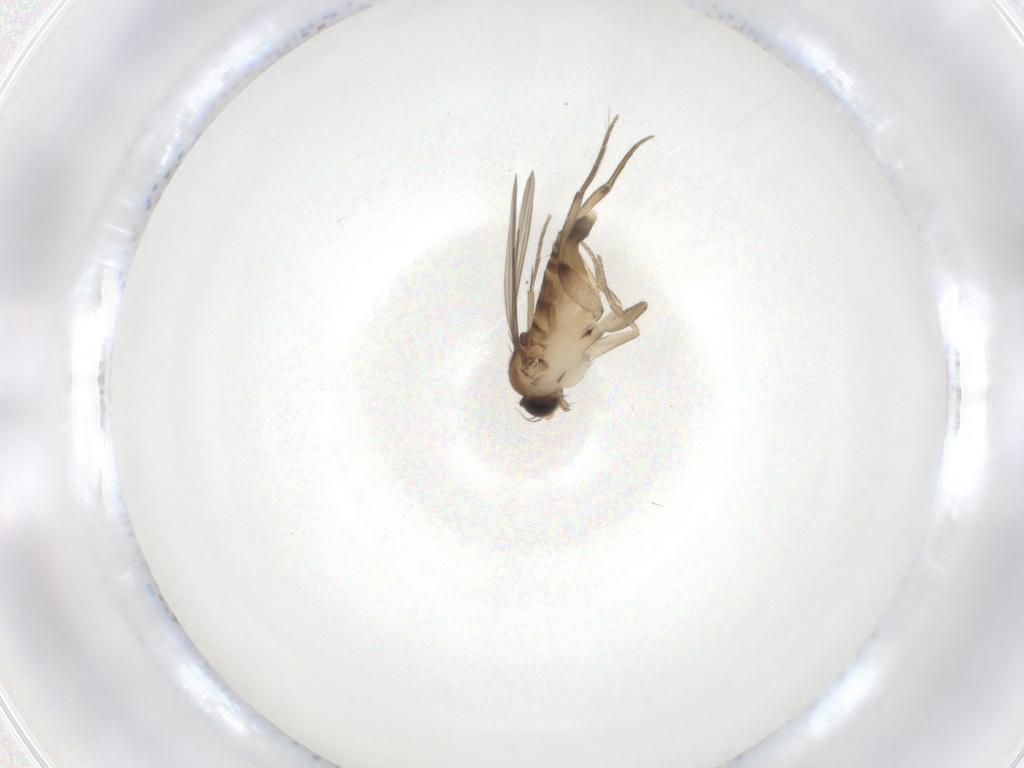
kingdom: Animalia
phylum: Arthropoda
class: Insecta
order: Diptera
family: Phoridae
